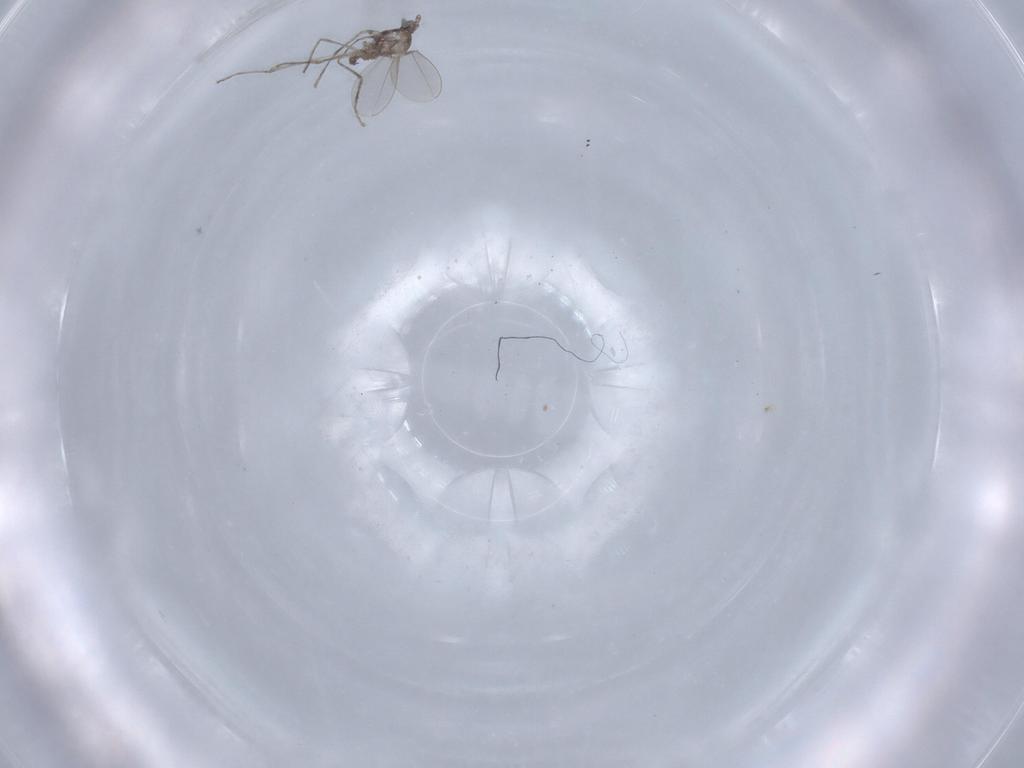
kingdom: Animalia
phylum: Arthropoda
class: Insecta
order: Diptera
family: Cecidomyiidae
